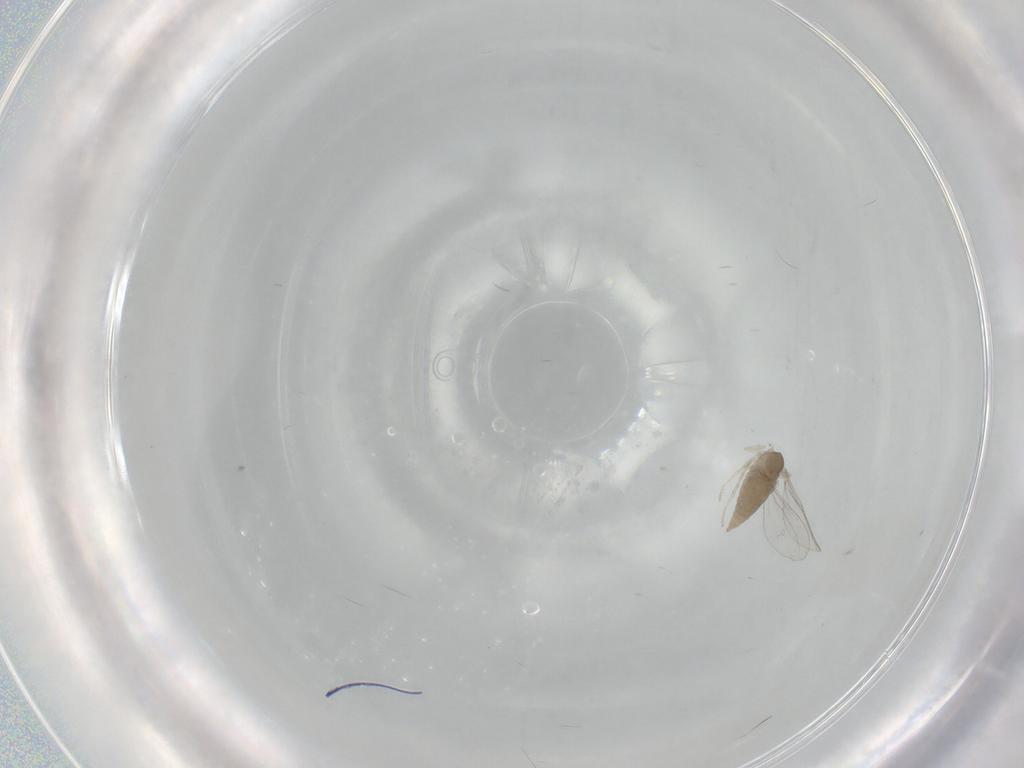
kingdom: Animalia
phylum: Arthropoda
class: Insecta
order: Diptera
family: Cecidomyiidae
